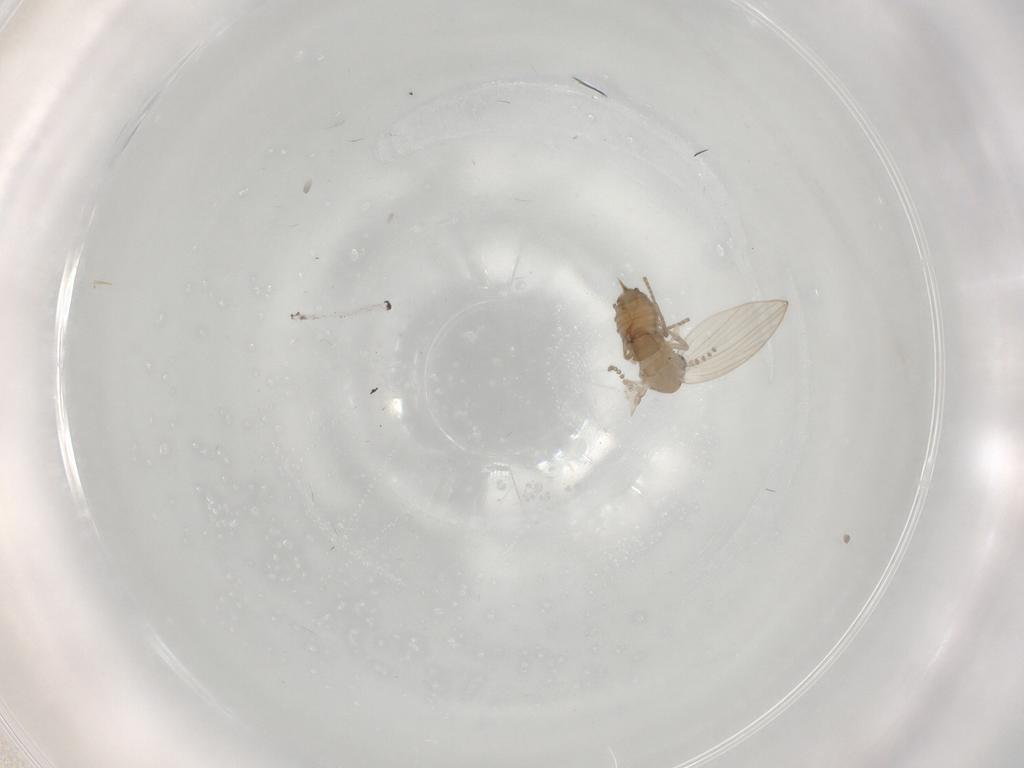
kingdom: Animalia
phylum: Arthropoda
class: Insecta
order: Diptera
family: Psychodidae
